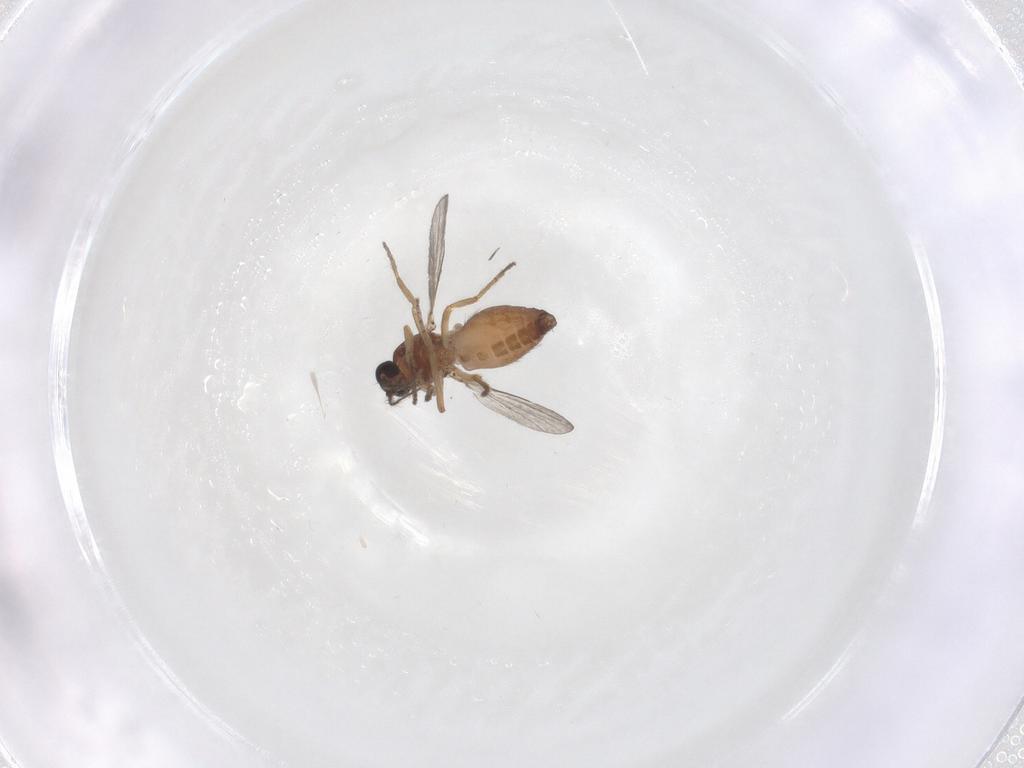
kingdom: Animalia
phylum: Arthropoda
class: Insecta
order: Diptera
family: Ceratopogonidae
